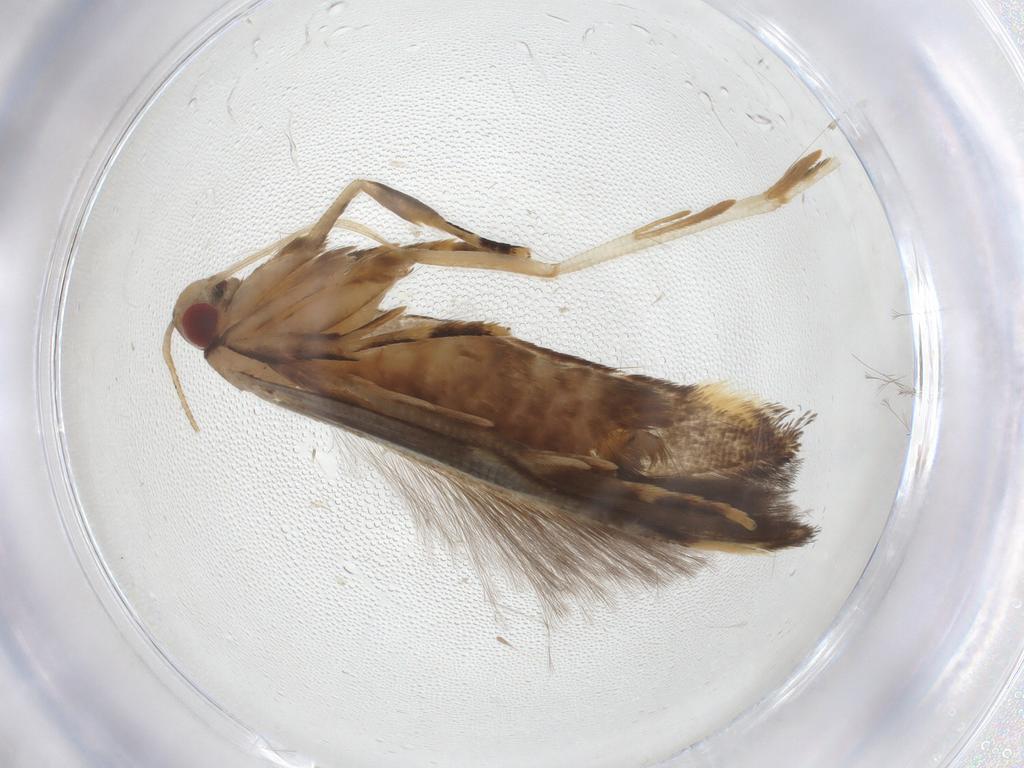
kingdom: Animalia
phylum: Arthropoda
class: Insecta
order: Lepidoptera
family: Cosmopterigidae
